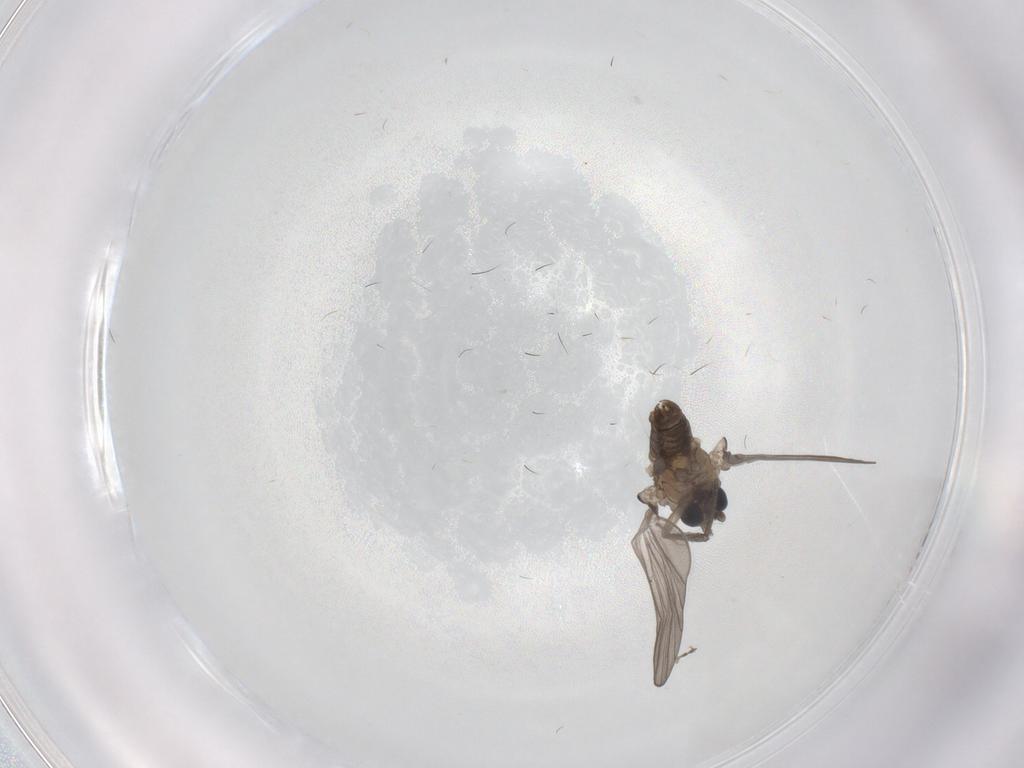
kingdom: Animalia
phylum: Arthropoda
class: Insecta
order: Diptera
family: Psychodidae
